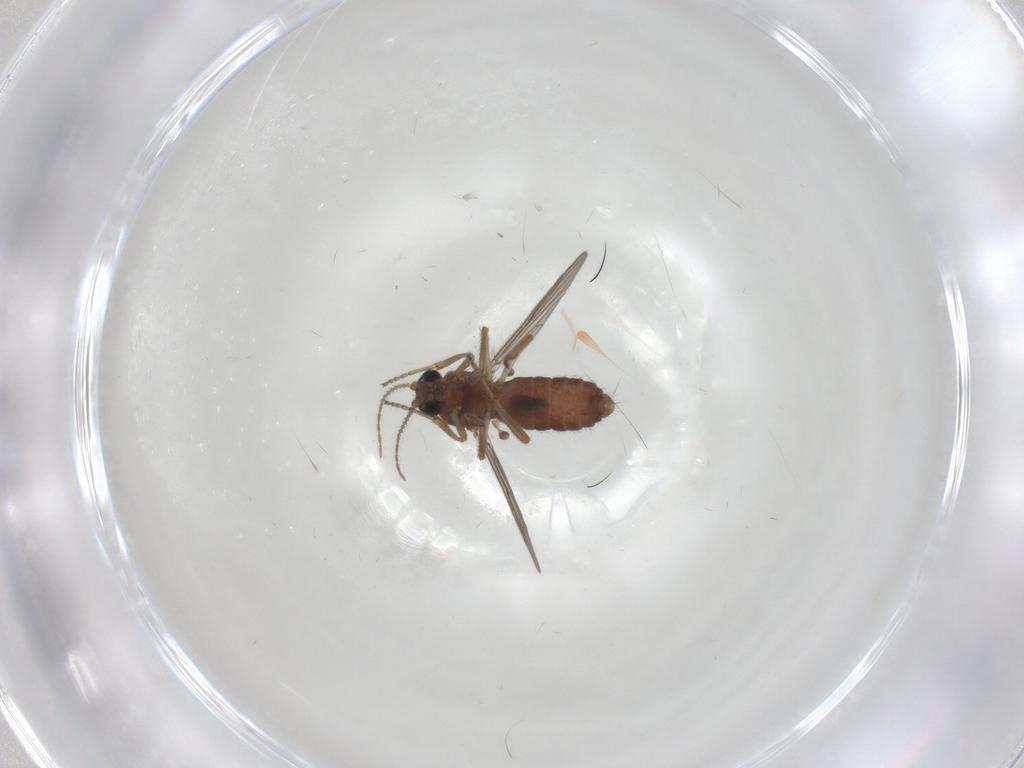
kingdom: Animalia
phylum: Arthropoda
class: Insecta
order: Diptera
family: Ceratopogonidae
